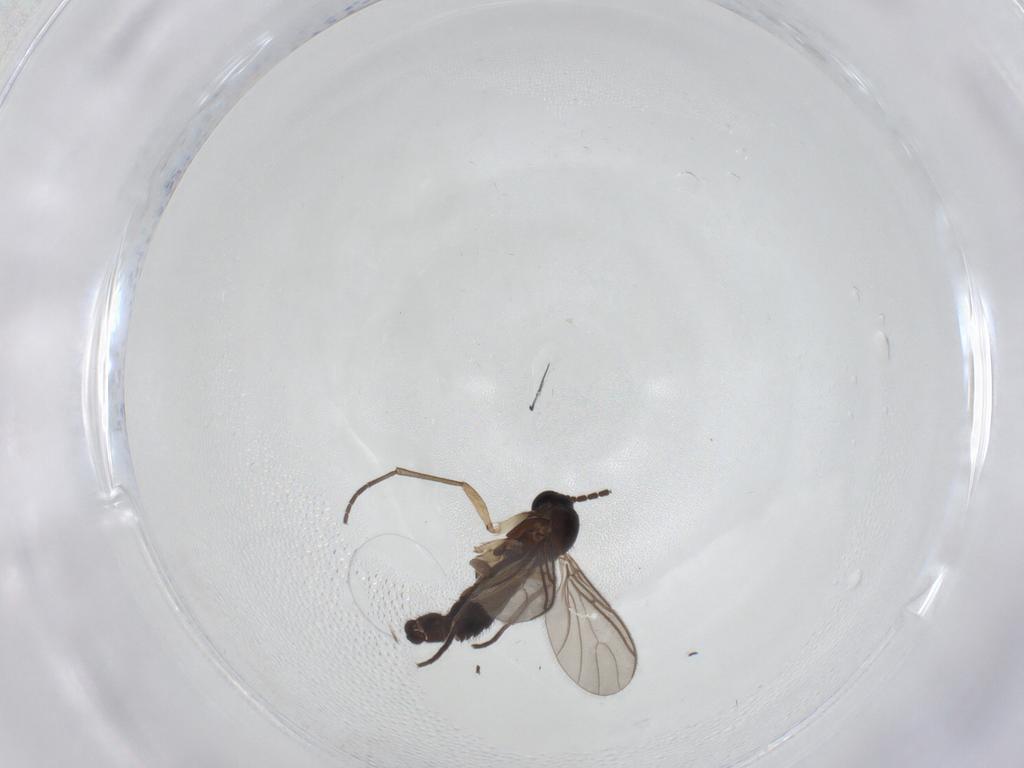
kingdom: Animalia
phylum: Arthropoda
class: Insecta
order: Diptera
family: Sciaridae
